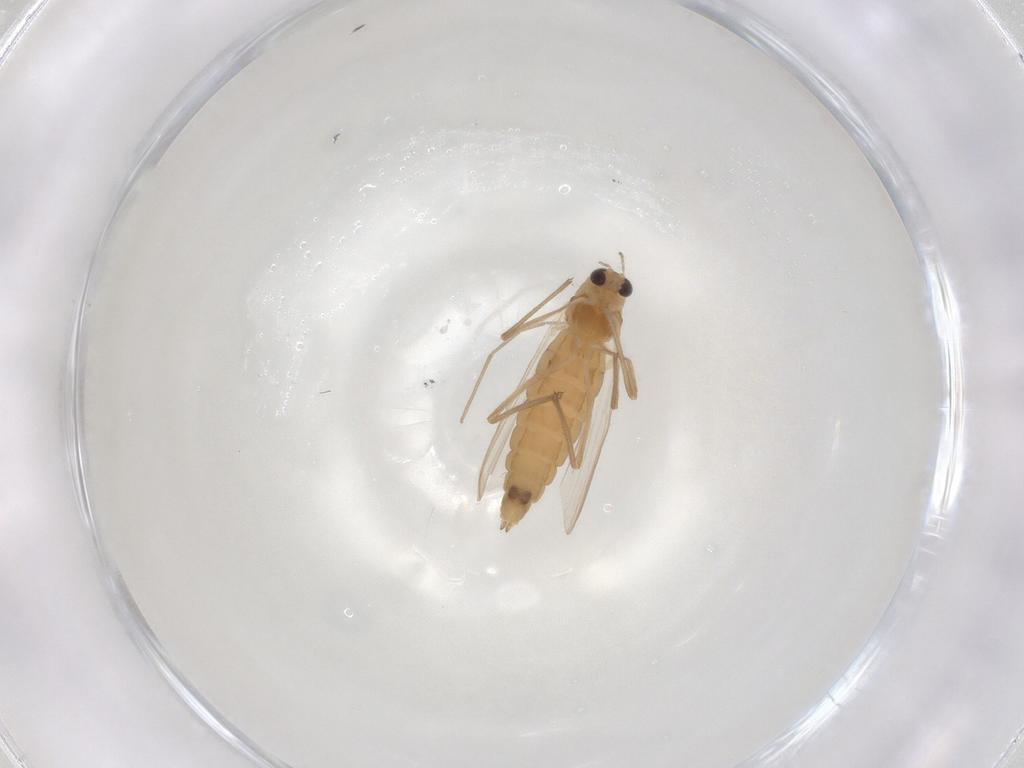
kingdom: Animalia
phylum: Arthropoda
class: Insecta
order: Diptera
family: Chironomidae
